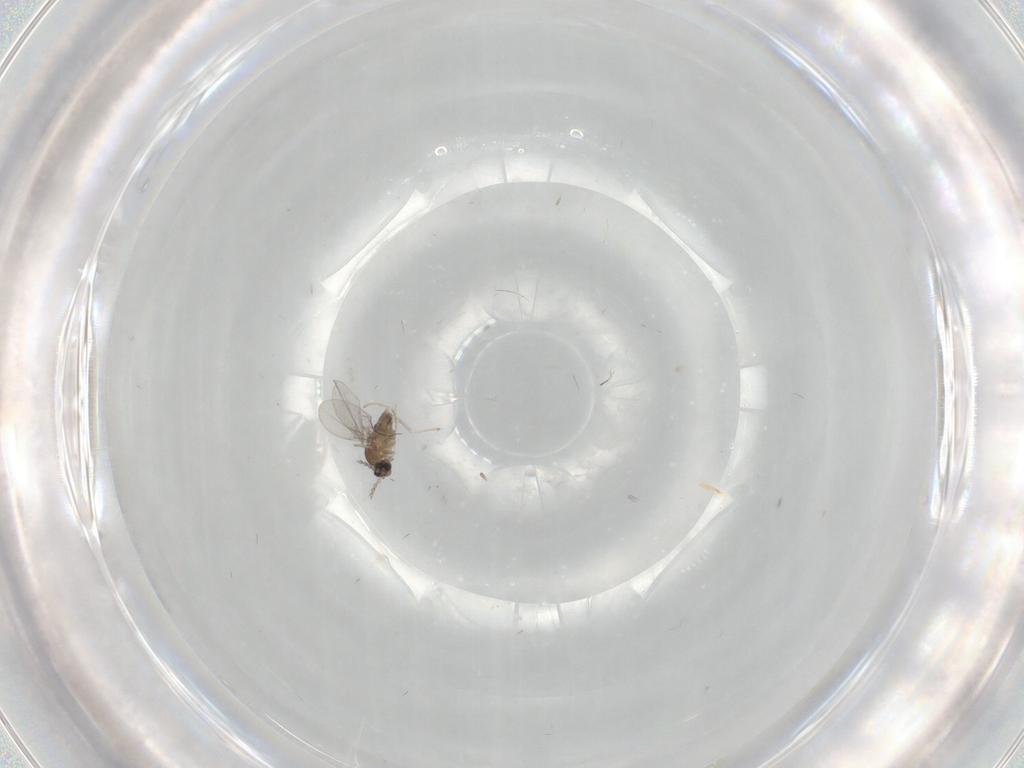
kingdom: Animalia
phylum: Arthropoda
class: Insecta
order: Diptera
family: Cecidomyiidae
